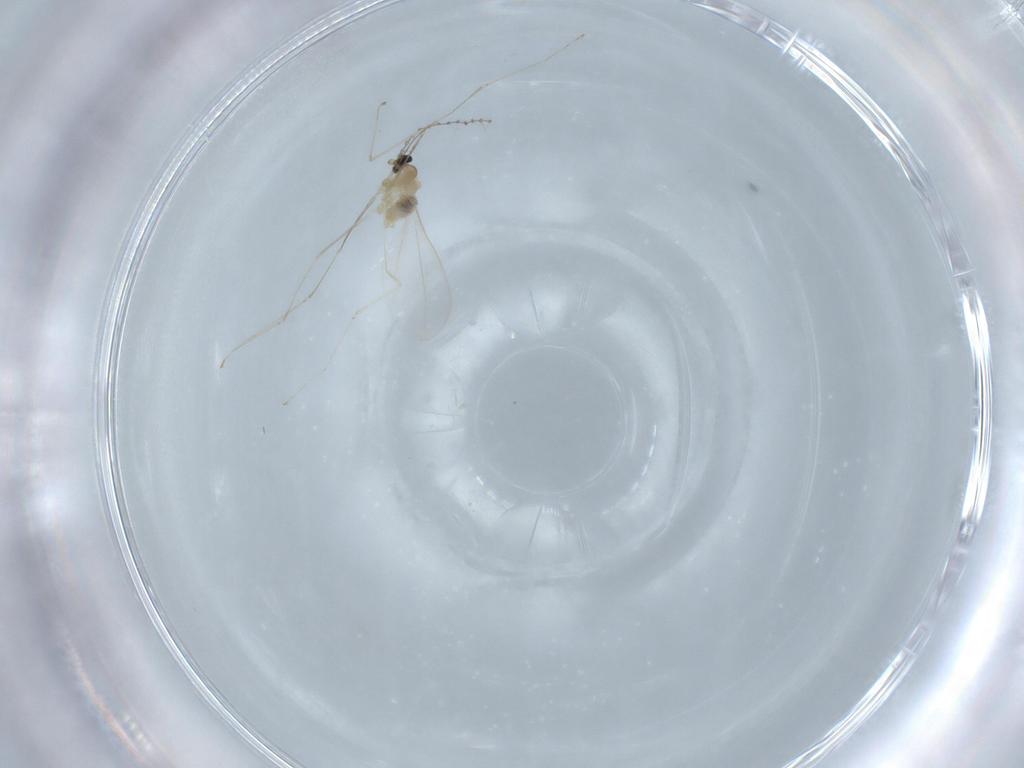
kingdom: Animalia
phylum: Arthropoda
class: Insecta
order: Diptera
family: Cecidomyiidae
